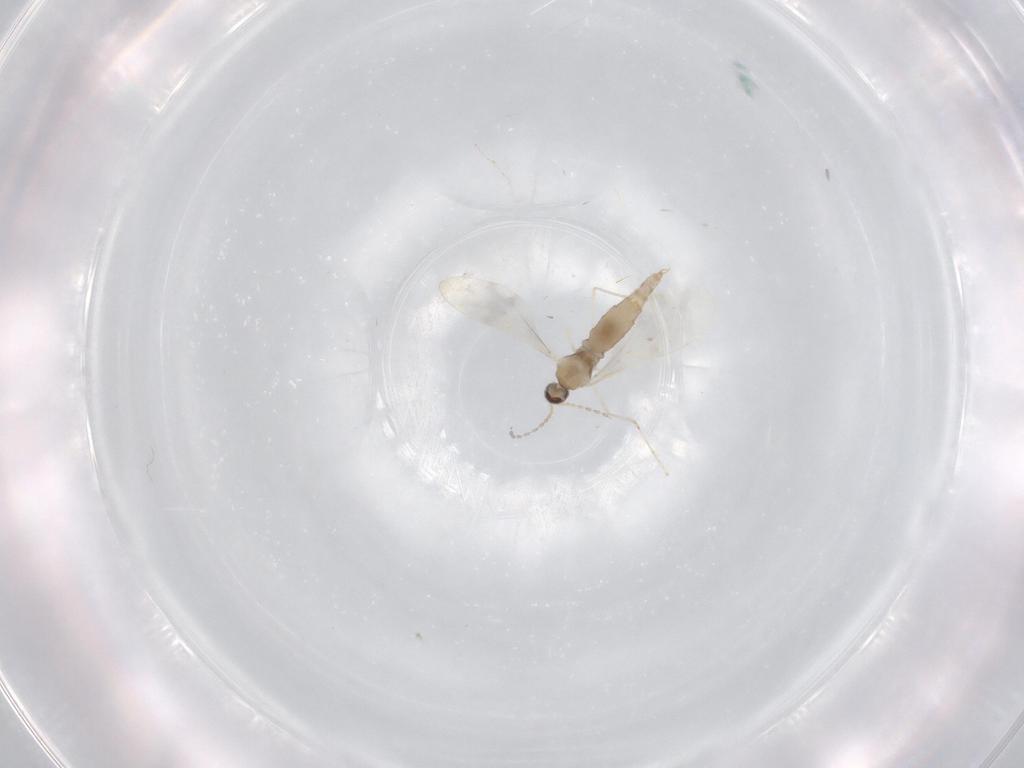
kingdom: Animalia
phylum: Arthropoda
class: Insecta
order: Diptera
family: Cecidomyiidae
